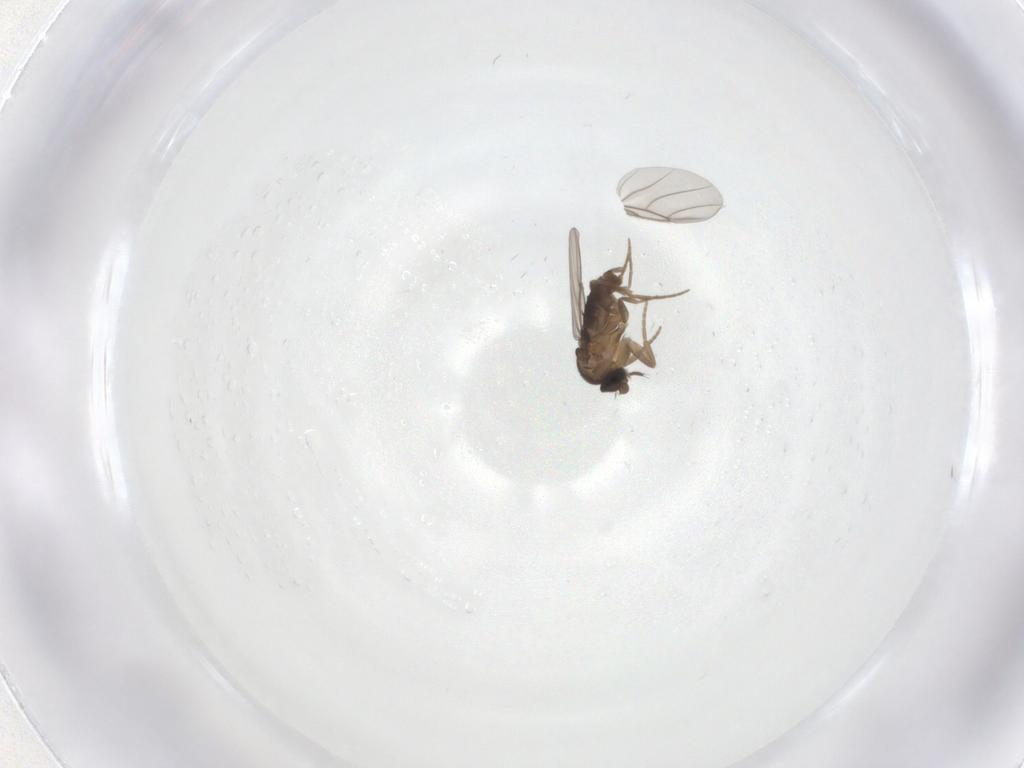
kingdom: Animalia
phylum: Arthropoda
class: Insecta
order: Diptera
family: Psychodidae
